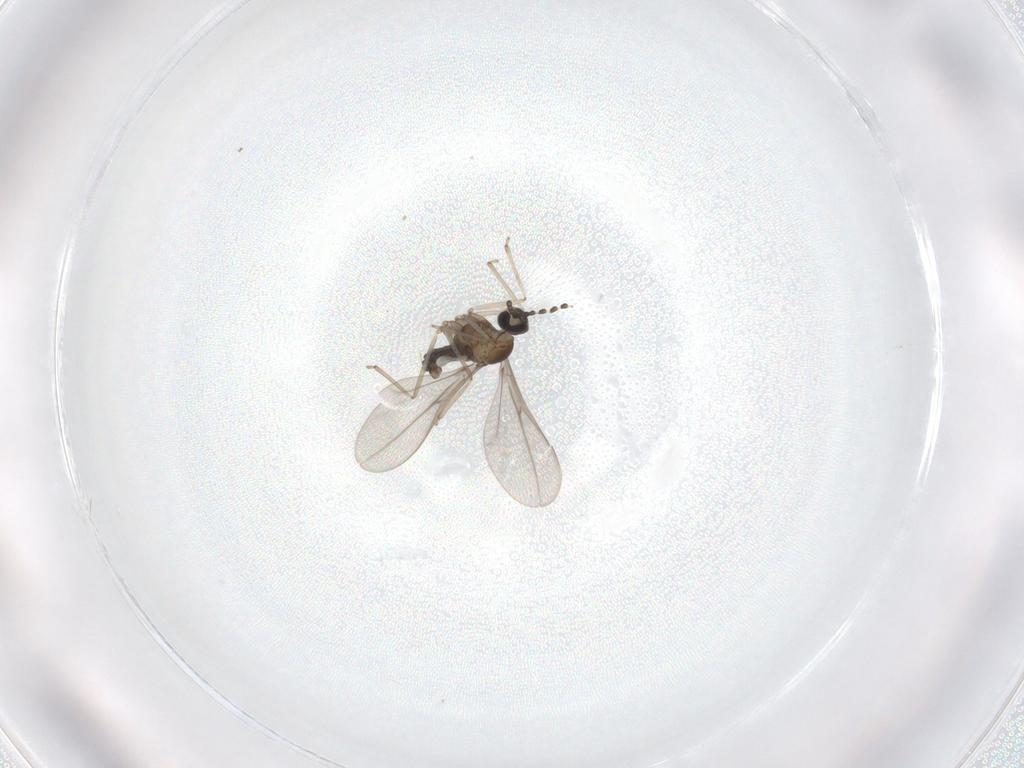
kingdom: Animalia
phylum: Arthropoda
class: Insecta
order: Diptera
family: Cecidomyiidae
